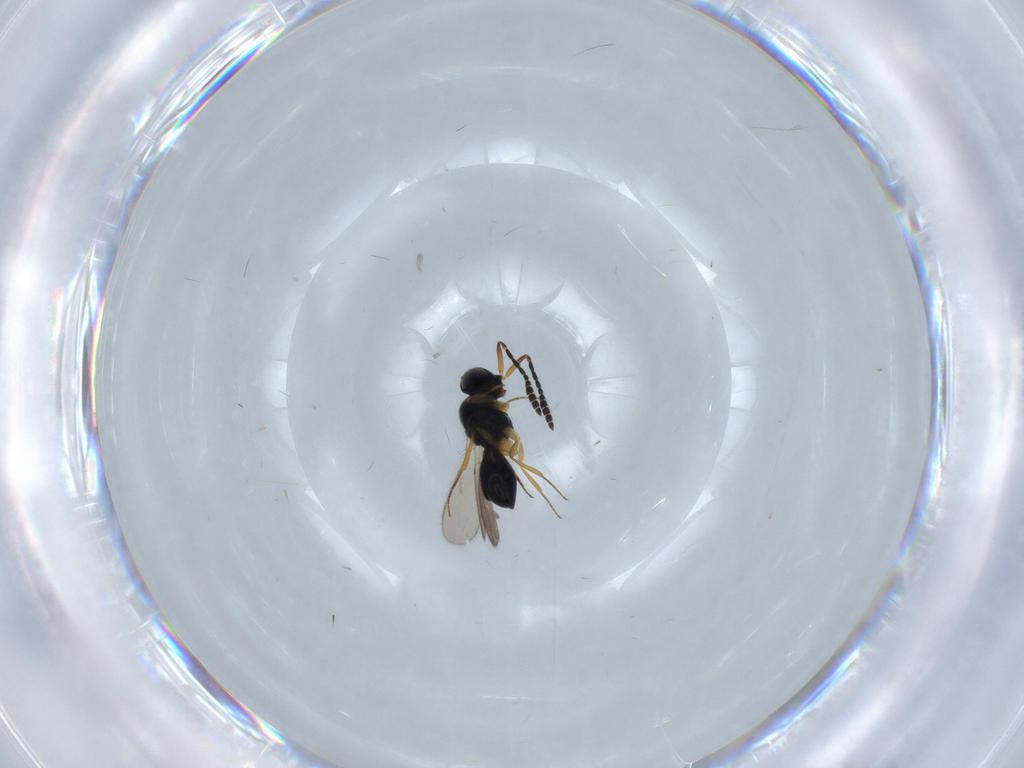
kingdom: Animalia
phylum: Arthropoda
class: Insecta
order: Hymenoptera
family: Scelionidae
